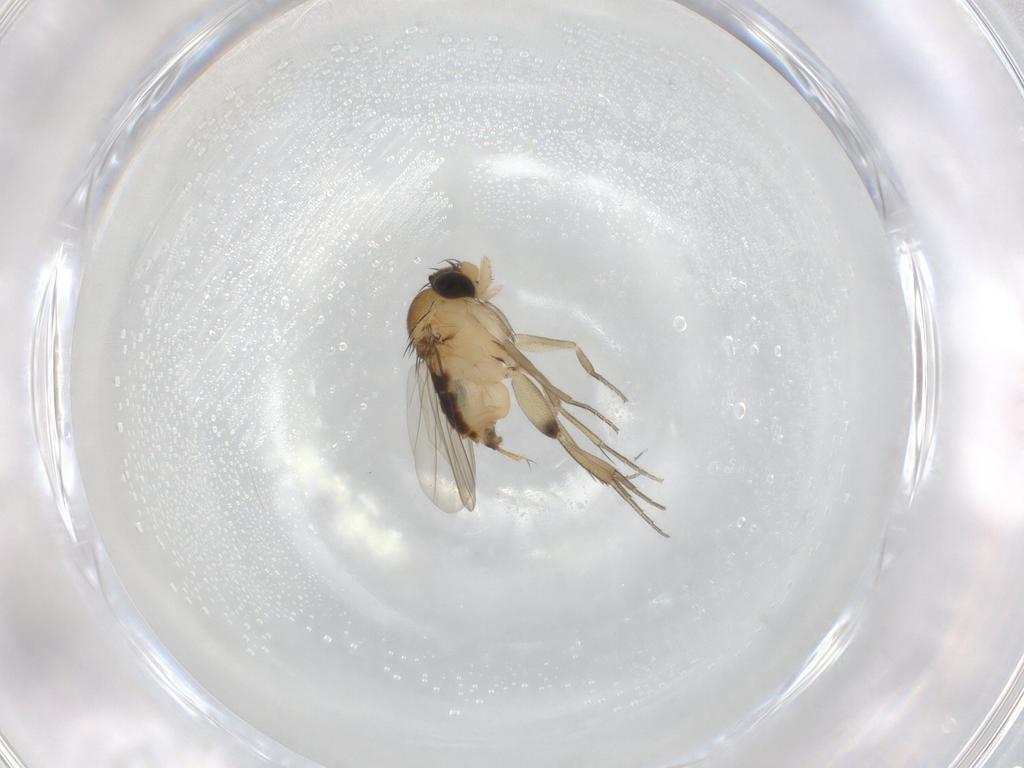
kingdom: Animalia
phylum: Arthropoda
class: Insecta
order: Diptera
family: Phoridae
